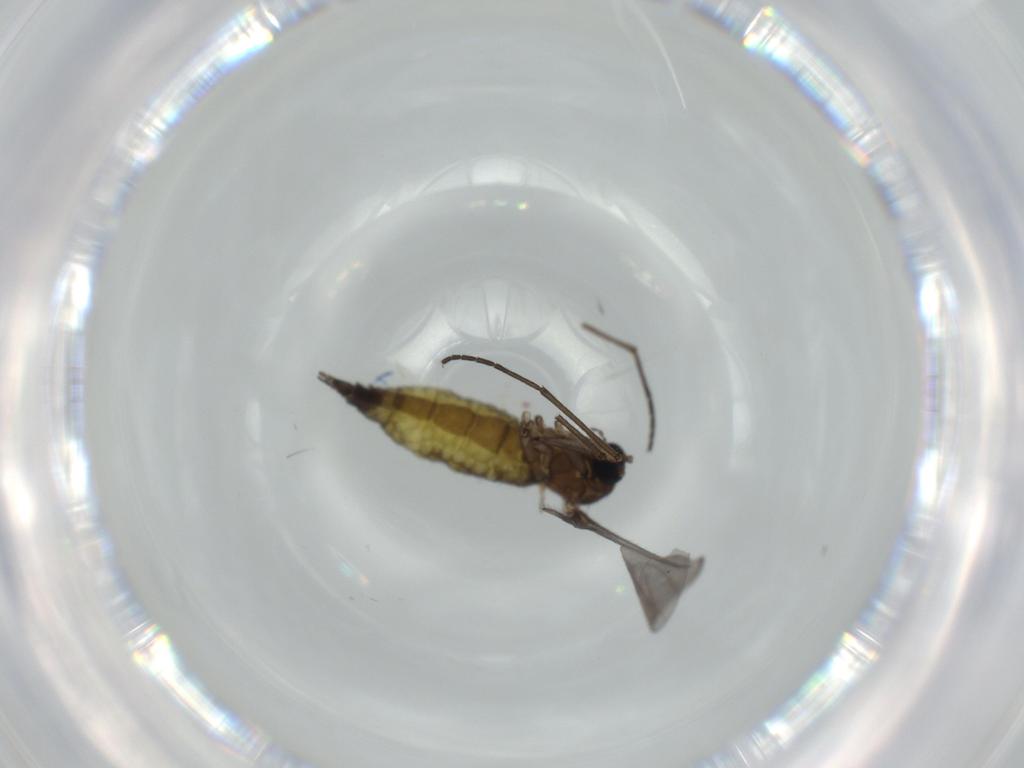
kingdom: Animalia
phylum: Arthropoda
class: Insecta
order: Diptera
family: Sciaridae
